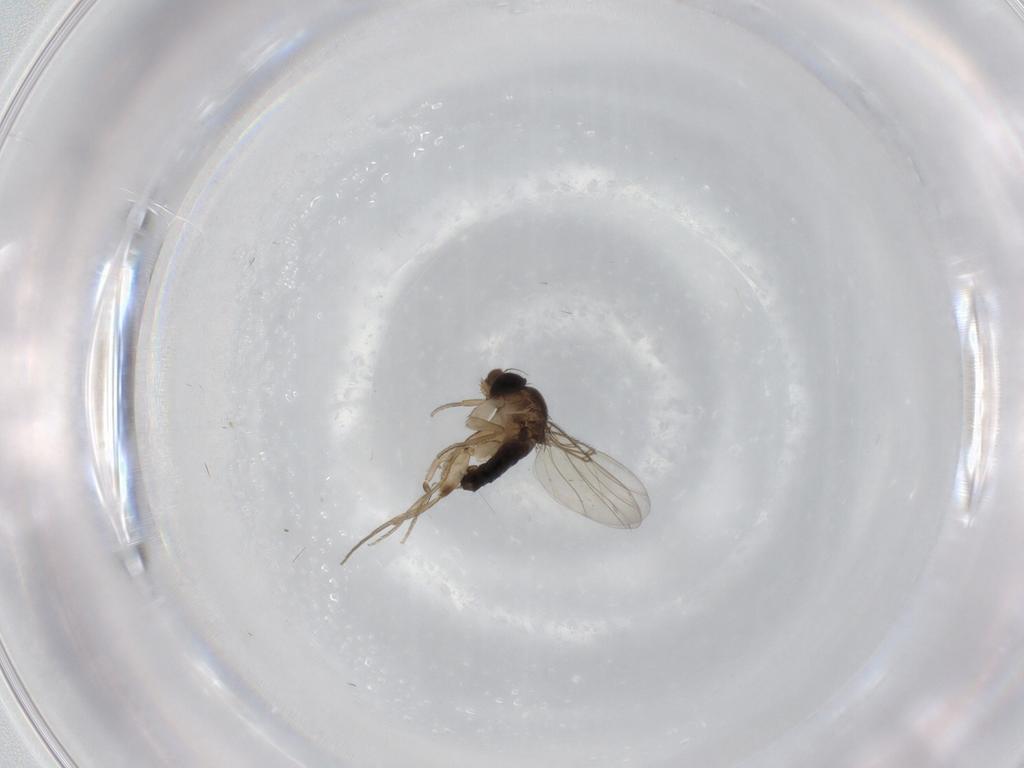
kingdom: Animalia
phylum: Arthropoda
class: Insecta
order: Diptera
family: Phoridae
